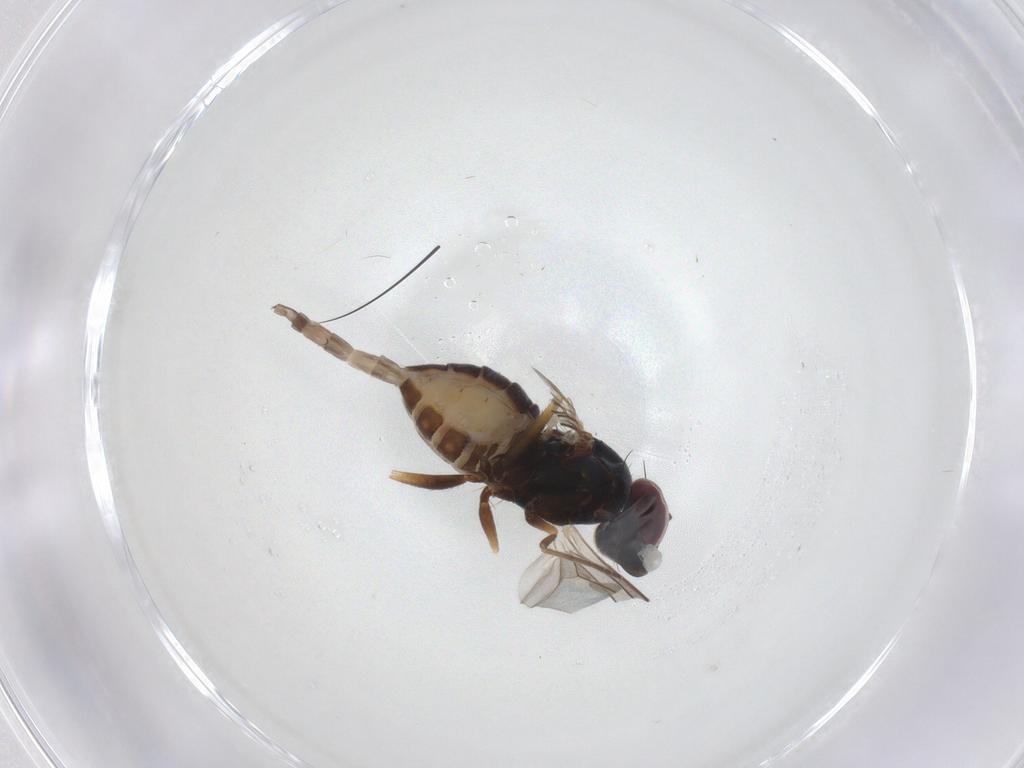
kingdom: Animalia
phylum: Arthropoda
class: Insecta
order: Diptera
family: Dolichopodidae
